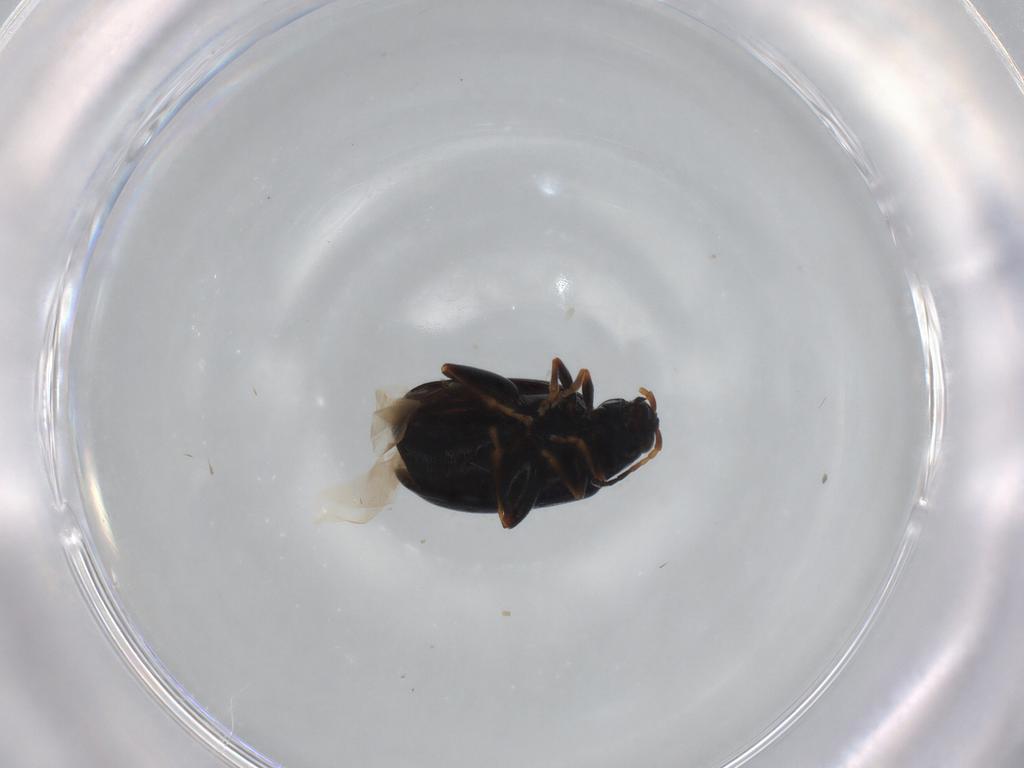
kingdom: Animalia
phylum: Arthropoda
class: Insecta
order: Coleoptera
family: Chrysomelidae
